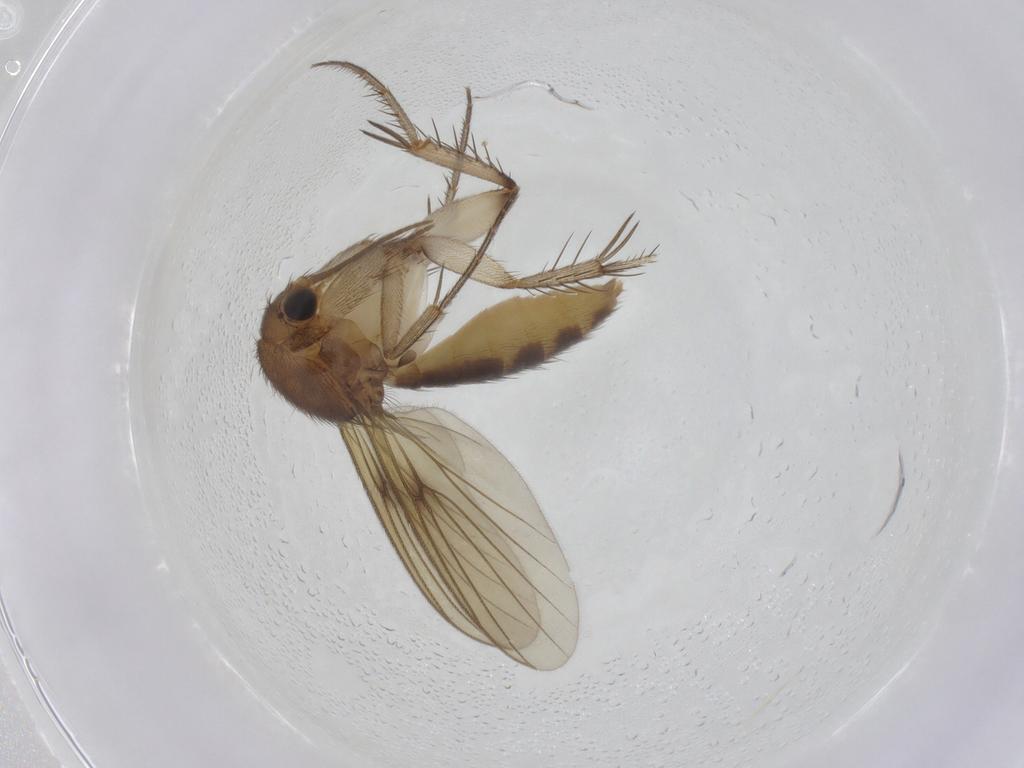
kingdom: Animalia
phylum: Arthropoda
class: Insecta
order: Diptera
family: Mycetophilidae
